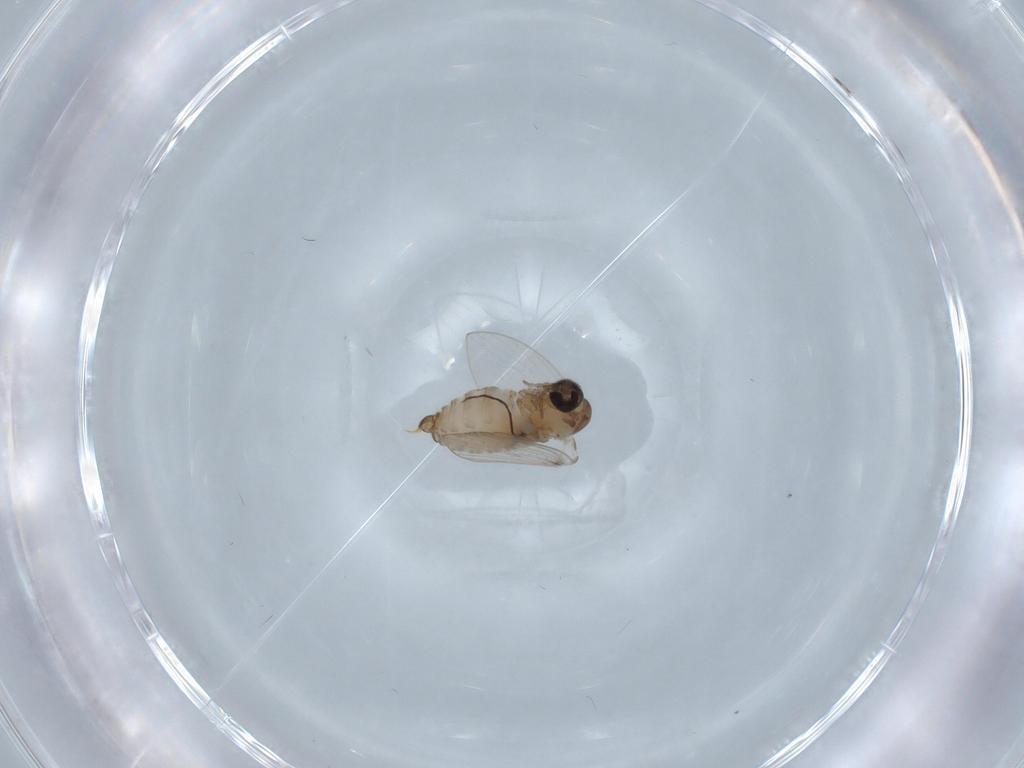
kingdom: Animalia
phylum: Arthropoda
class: Insecta
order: Diptera
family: Psychodidae
